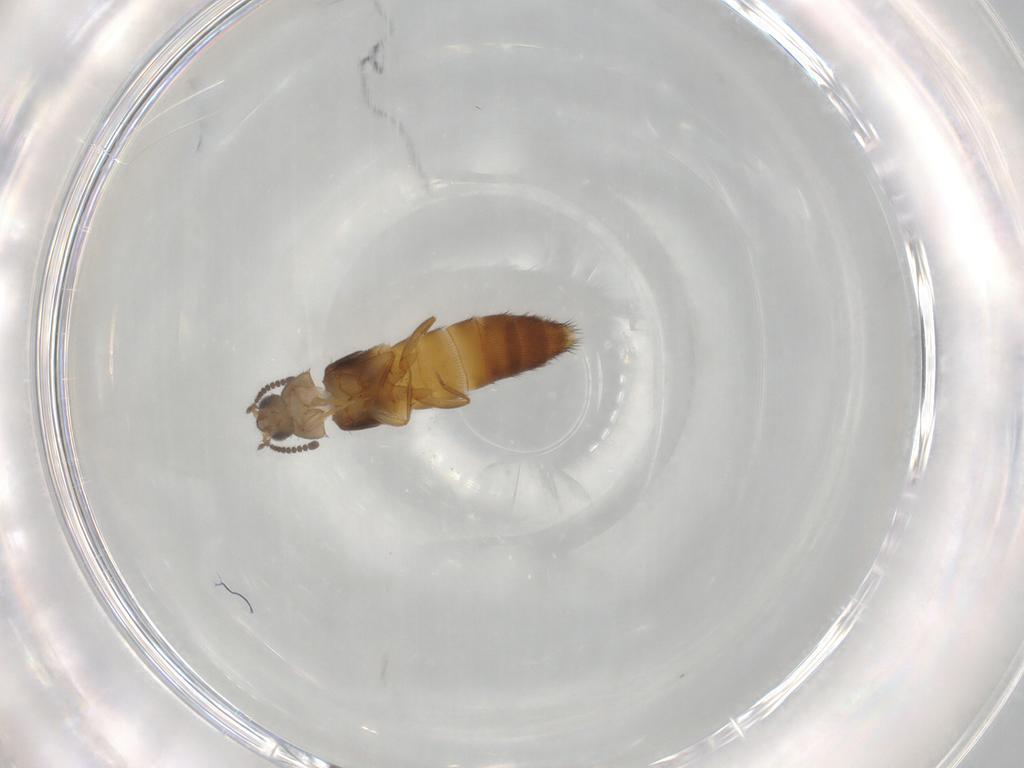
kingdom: Animalia
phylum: Arthropoda
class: Insecta
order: Coleoptera
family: Staphylinidae
